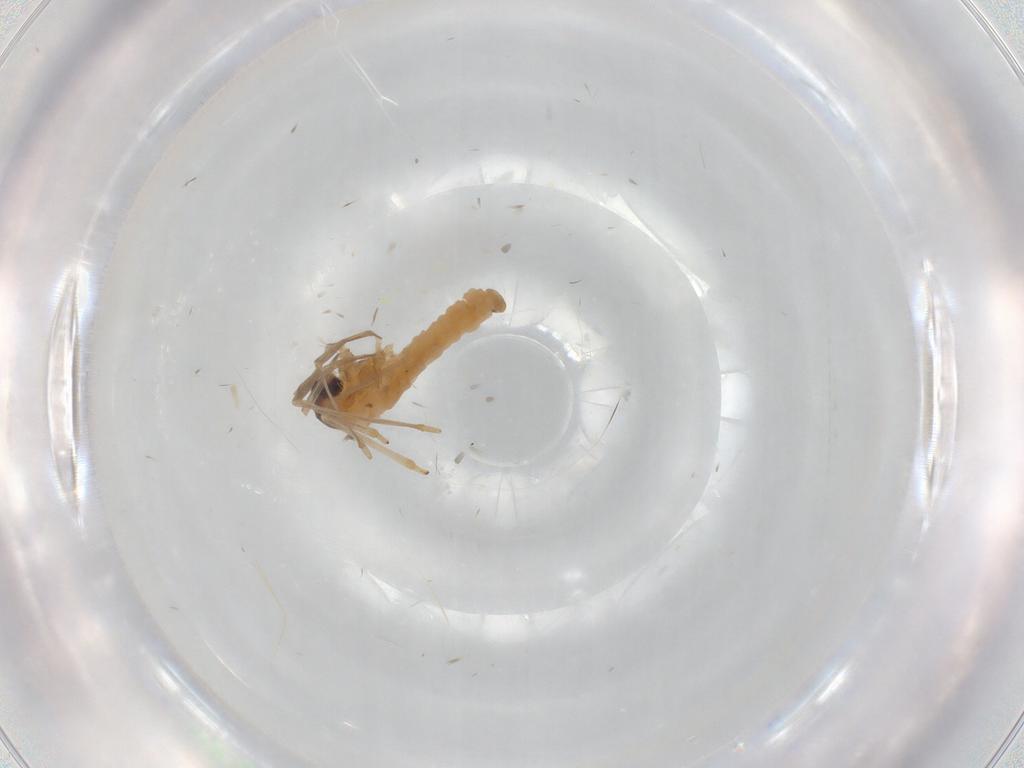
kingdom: Animalia
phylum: Arthropoda
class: Insecta
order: Diptera
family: Cecidomyiidae
